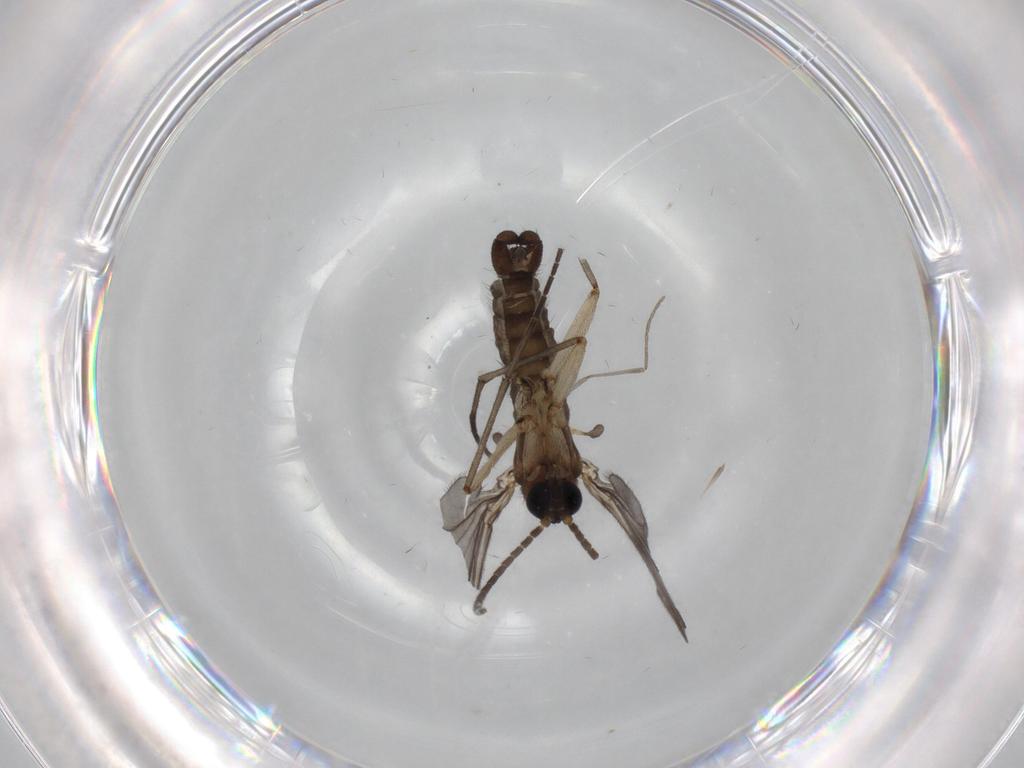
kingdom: Animalia
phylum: Arthropoda
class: Insecta
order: Diptera
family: Sciaridae
